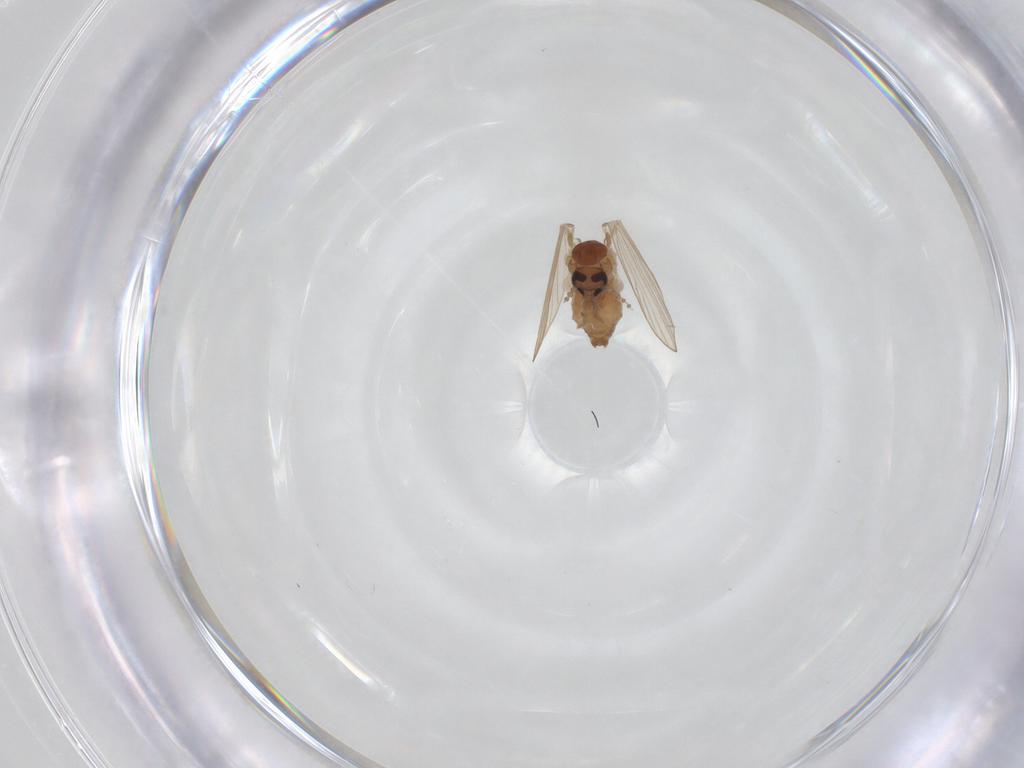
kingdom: Animalia
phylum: Arthropoda
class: Insecta
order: Diptera
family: Psychodidae
